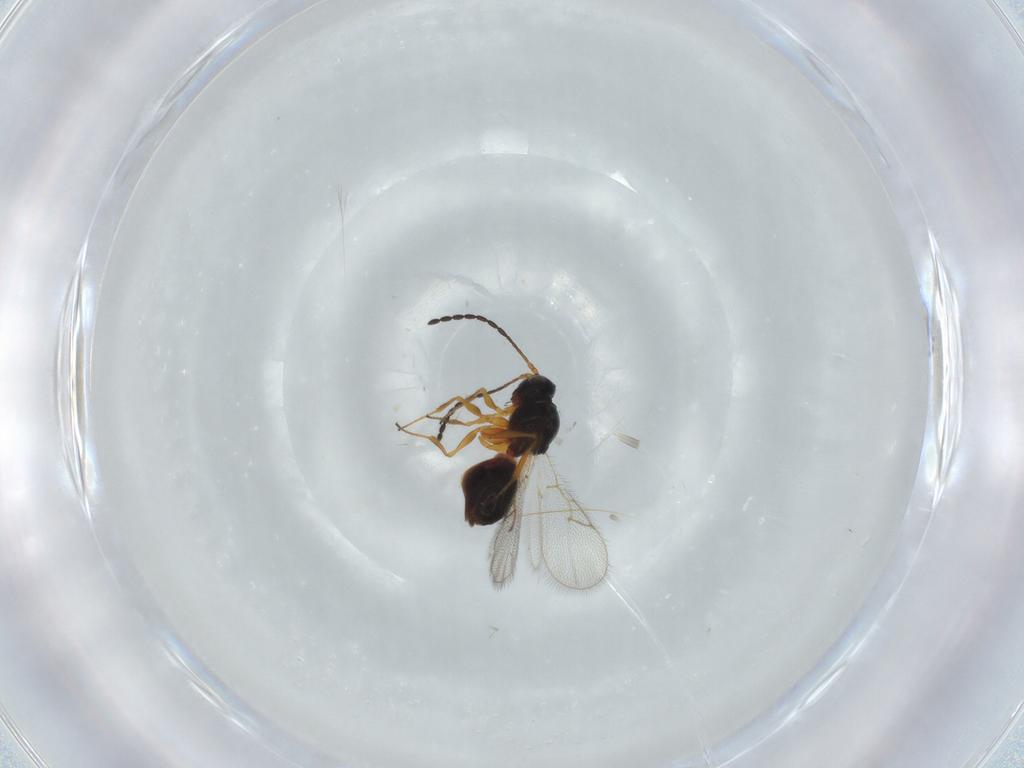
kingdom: Animalia
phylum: Arthropoda
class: Insecta
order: Hymenoptera
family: Figitidae
